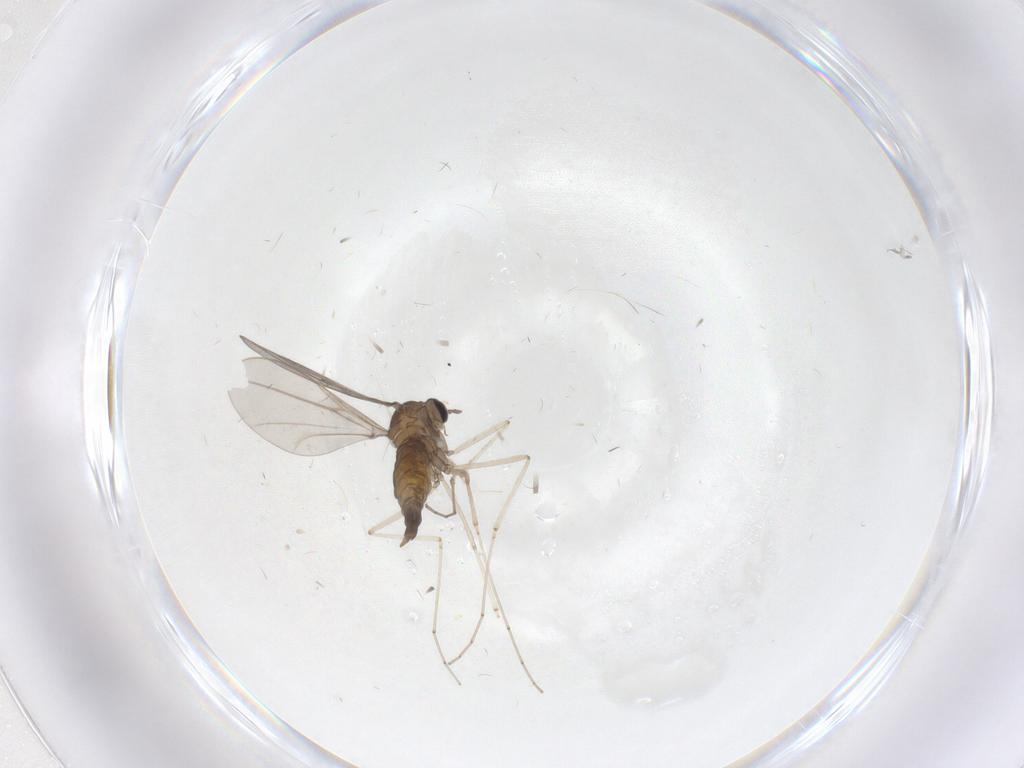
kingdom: Animalia
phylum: Arthropoda
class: Insecta
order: Diptera
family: Cecidomyiidae
